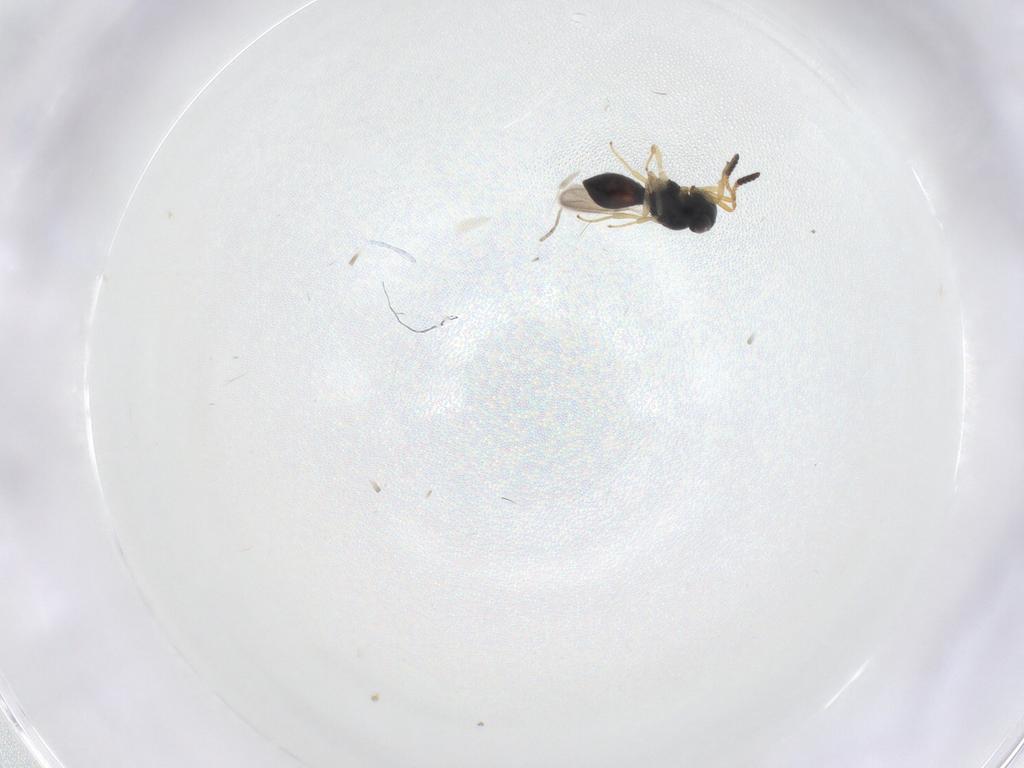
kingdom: Animalia
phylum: Arthropoda
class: Insecta
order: Hymenoptera
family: Scelionidae
